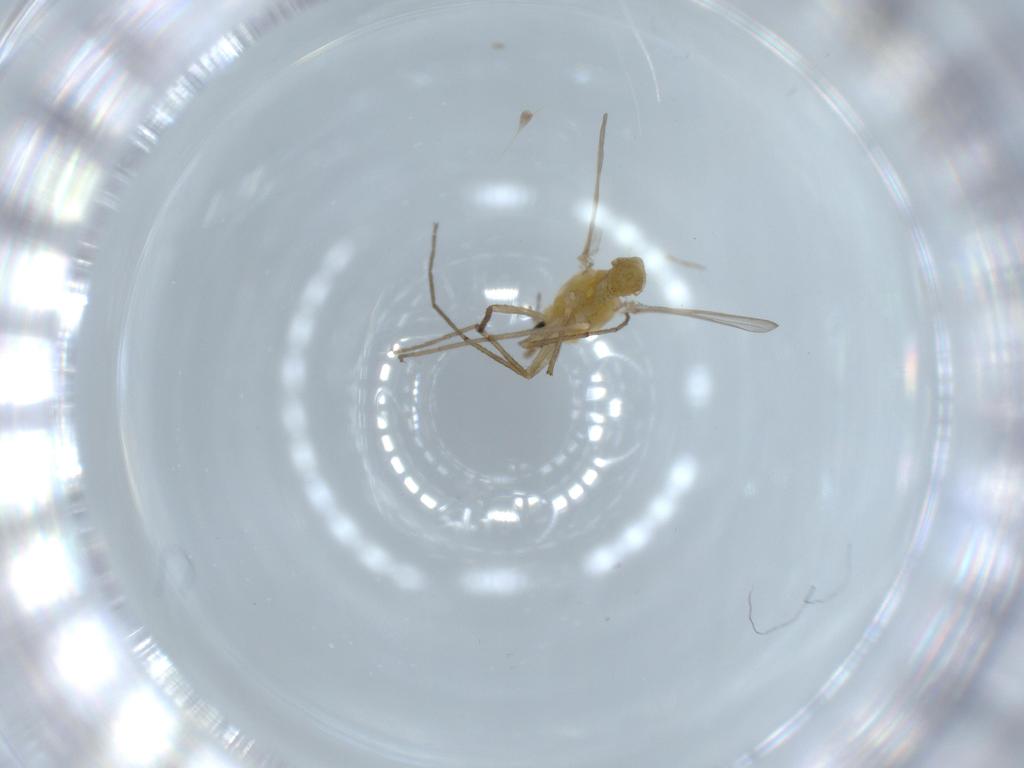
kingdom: Animalia
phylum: Arthropoda
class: Insecta
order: Diptera
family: Chironomidae
